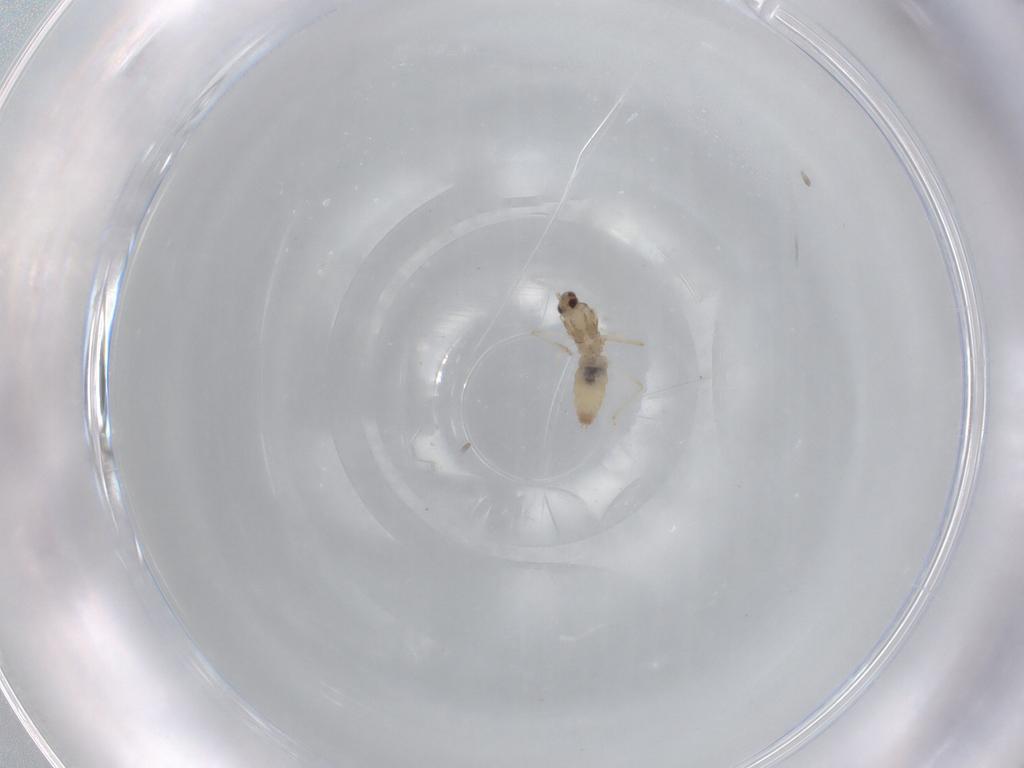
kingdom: Animalia
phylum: Arthropoda
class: Insecta
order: Diptera
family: Cecidomyiidae
